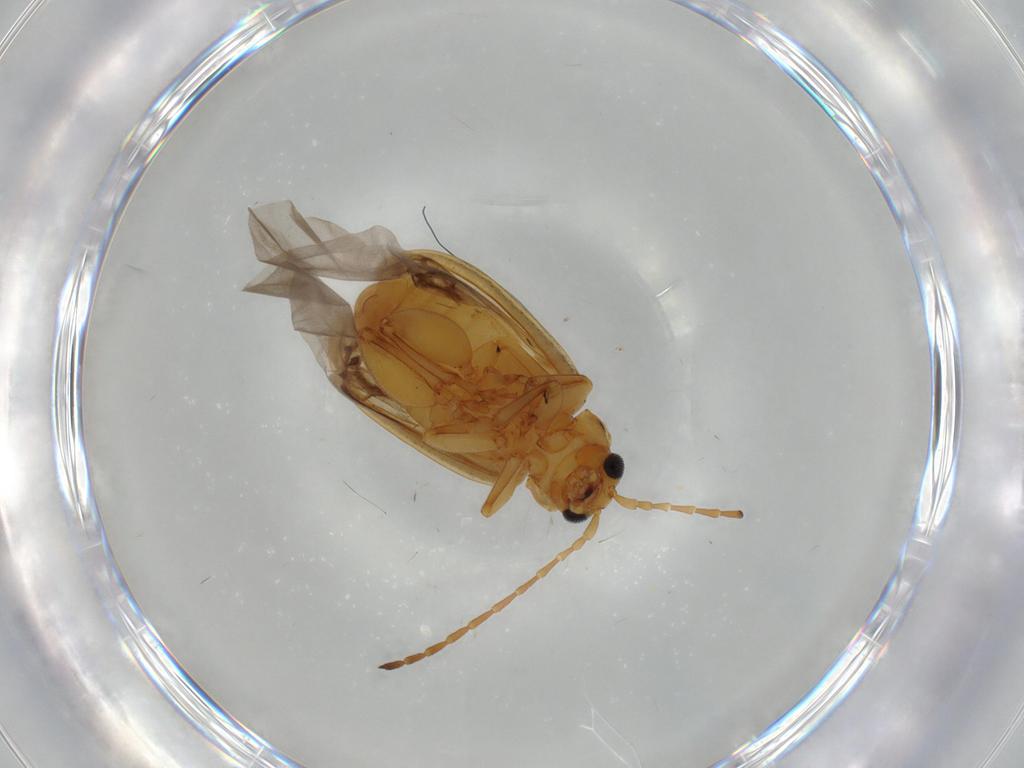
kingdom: Animalia
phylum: Arthropoda
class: Insecta
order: Coleoptera
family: Chrysomelidae
